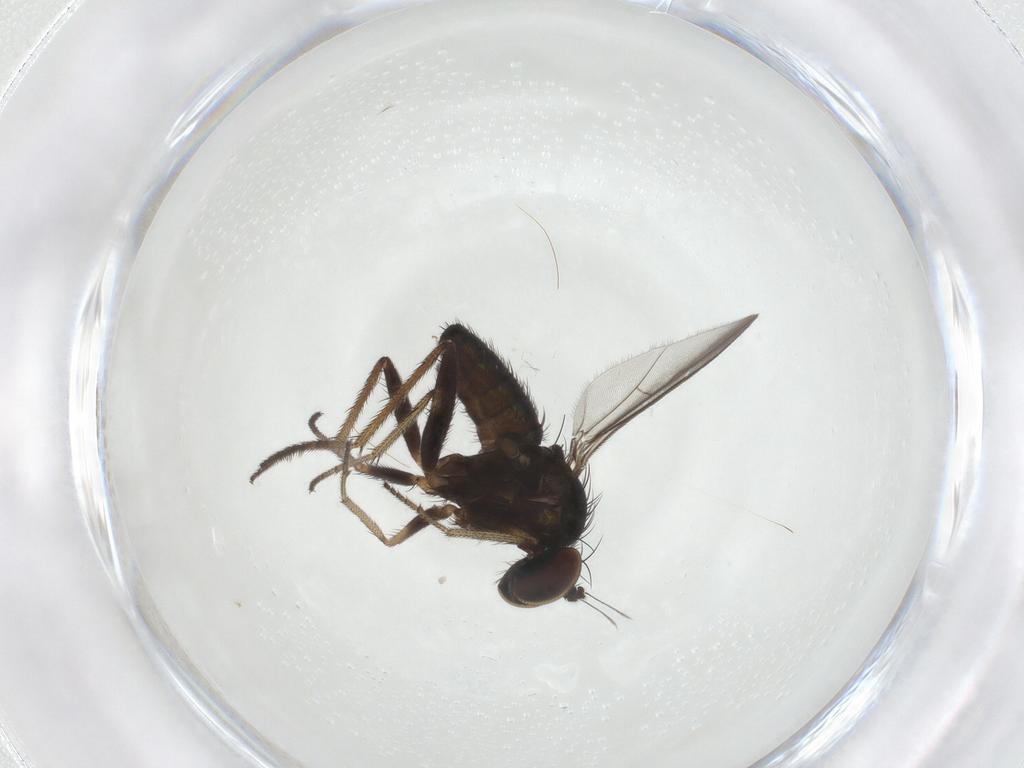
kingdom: Animalia
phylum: Arthropoda
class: Insecta
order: Diptera
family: Dolichopodidae
